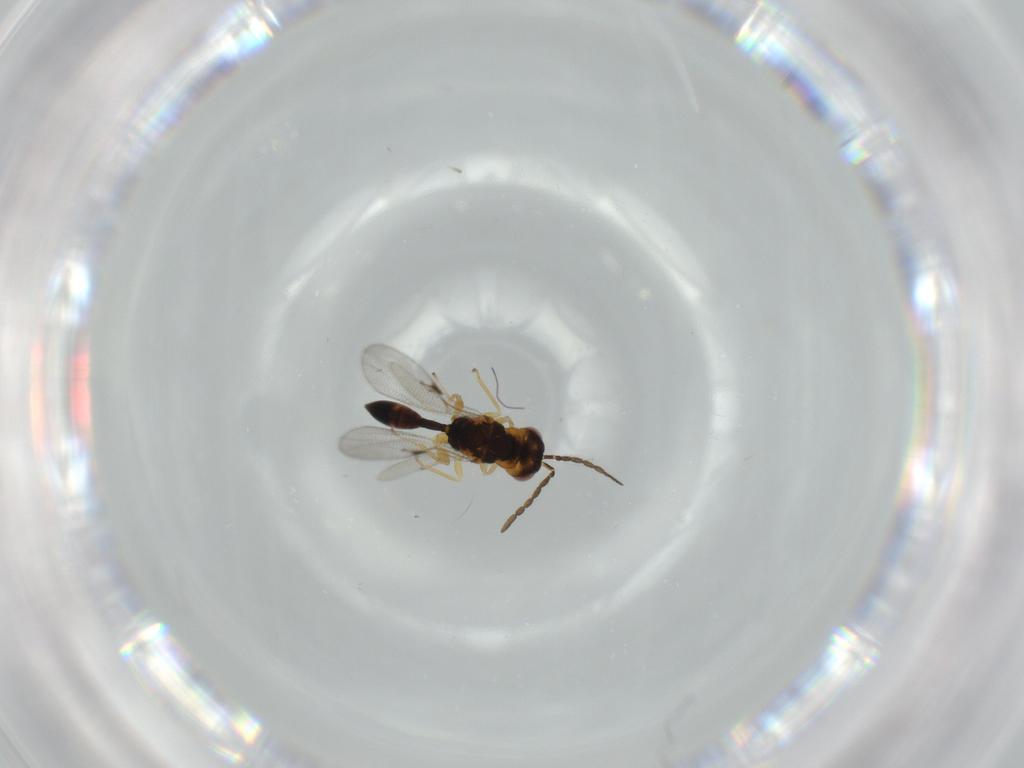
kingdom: Animalia
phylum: Arthropoda
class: Insecta
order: Hymenoptera
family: Eurytomidae
